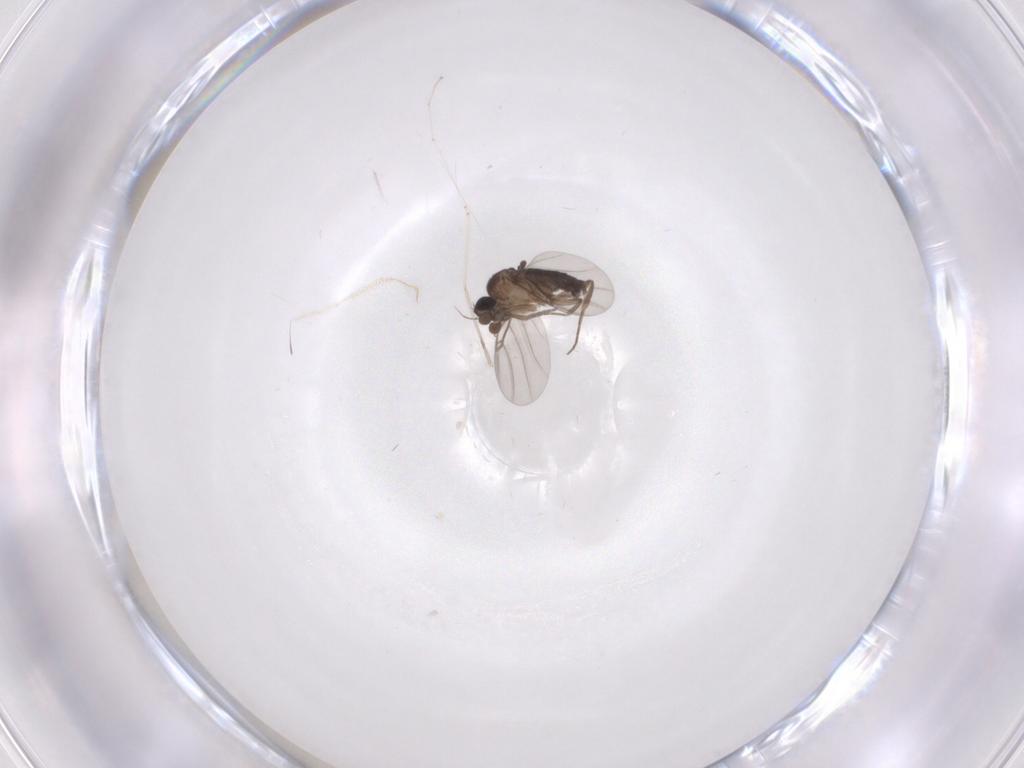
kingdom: Animalia
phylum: Arthropoda
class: Insecta
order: Diptera
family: Phoridae
